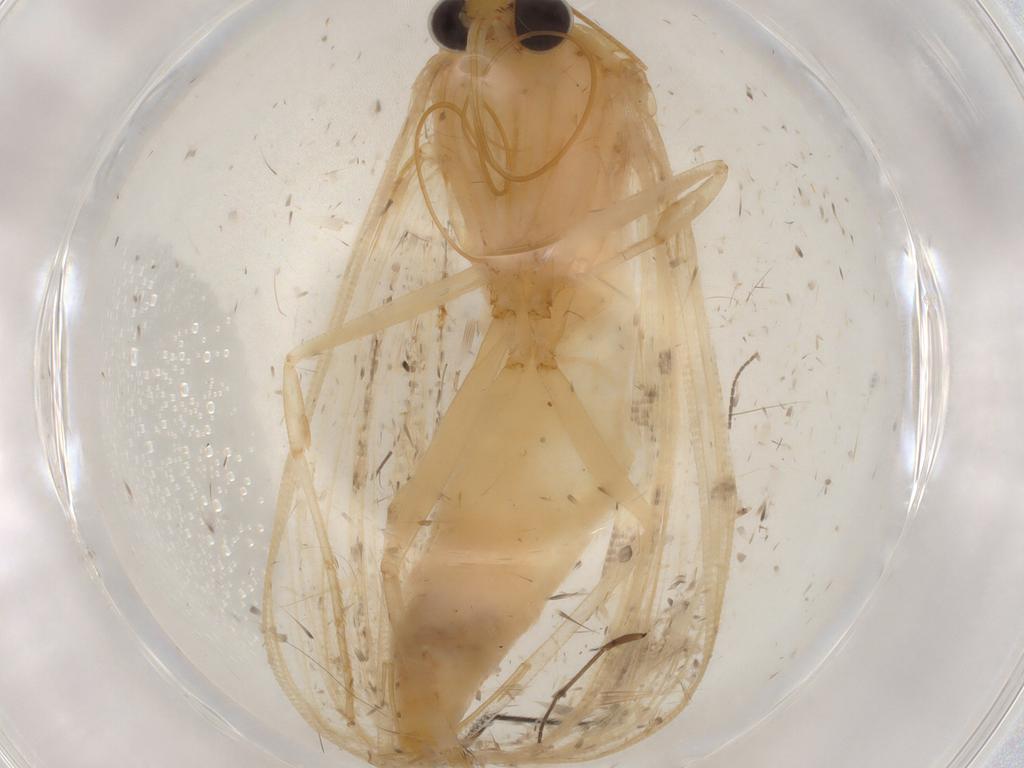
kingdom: Animalia
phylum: Arthropoda
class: Insecta
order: Lepidoptera
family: Crambidae
